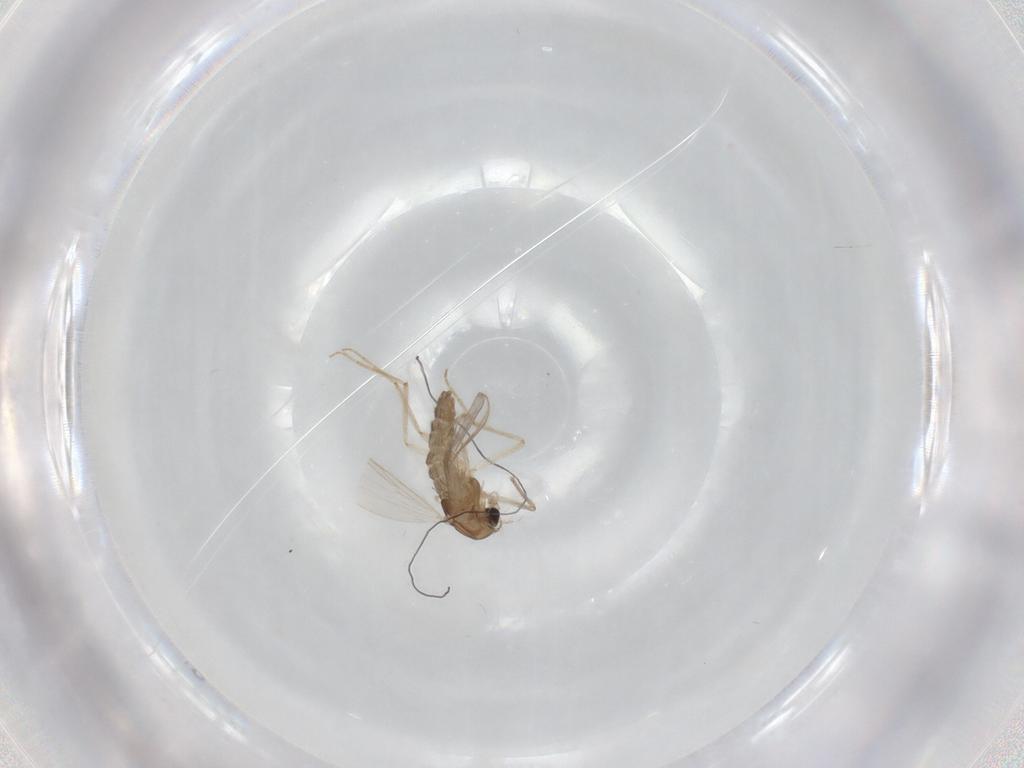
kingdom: Animalia
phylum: Arthropoda
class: Insecta
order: Diptera
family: Chironomidae
